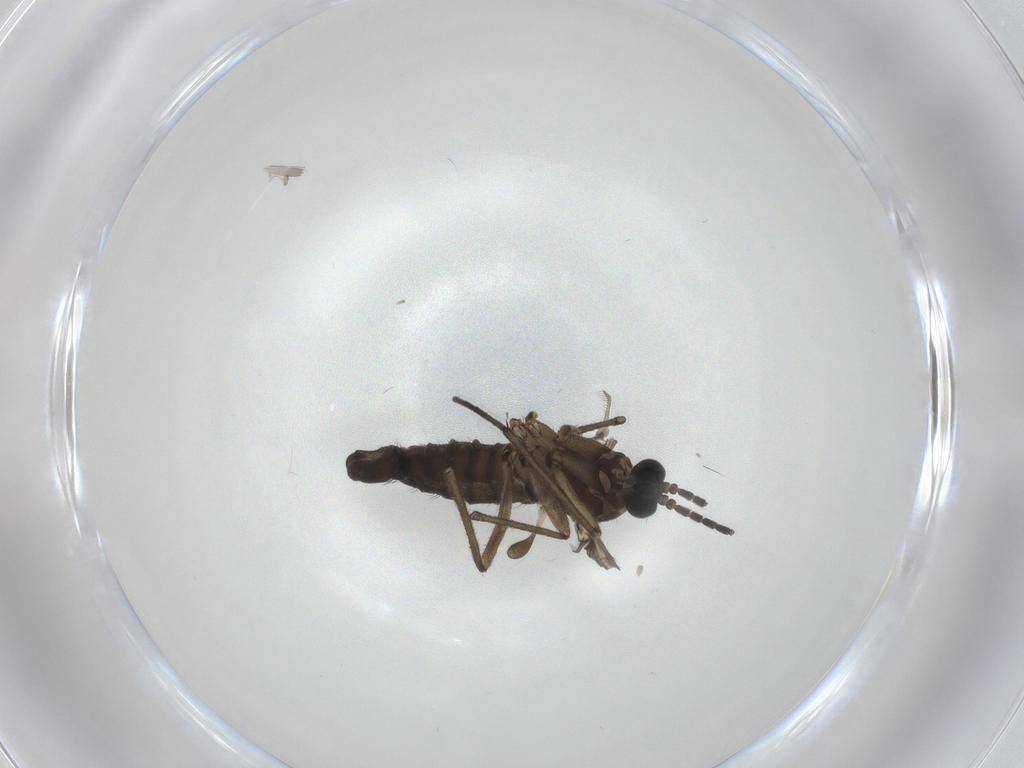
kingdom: Animalia
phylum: Arthropoda
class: Insecta
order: Diptera
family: Sciaridae
